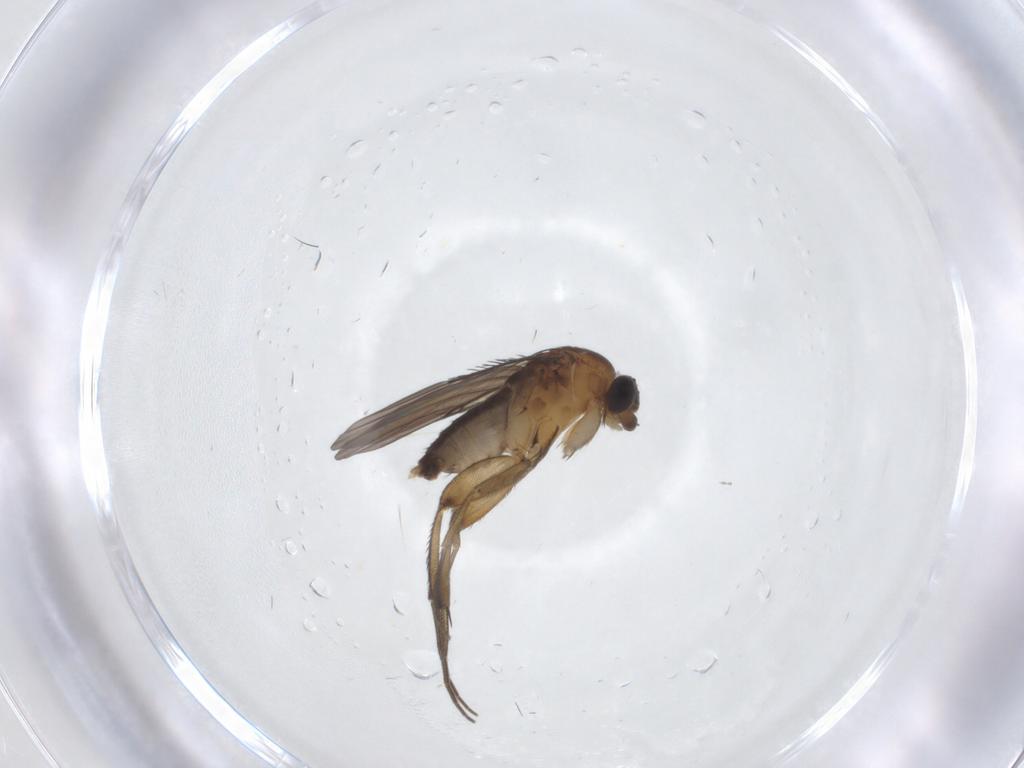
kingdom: Animalia
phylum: Arthropoda
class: Insecta
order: Diptera
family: Phoridae
